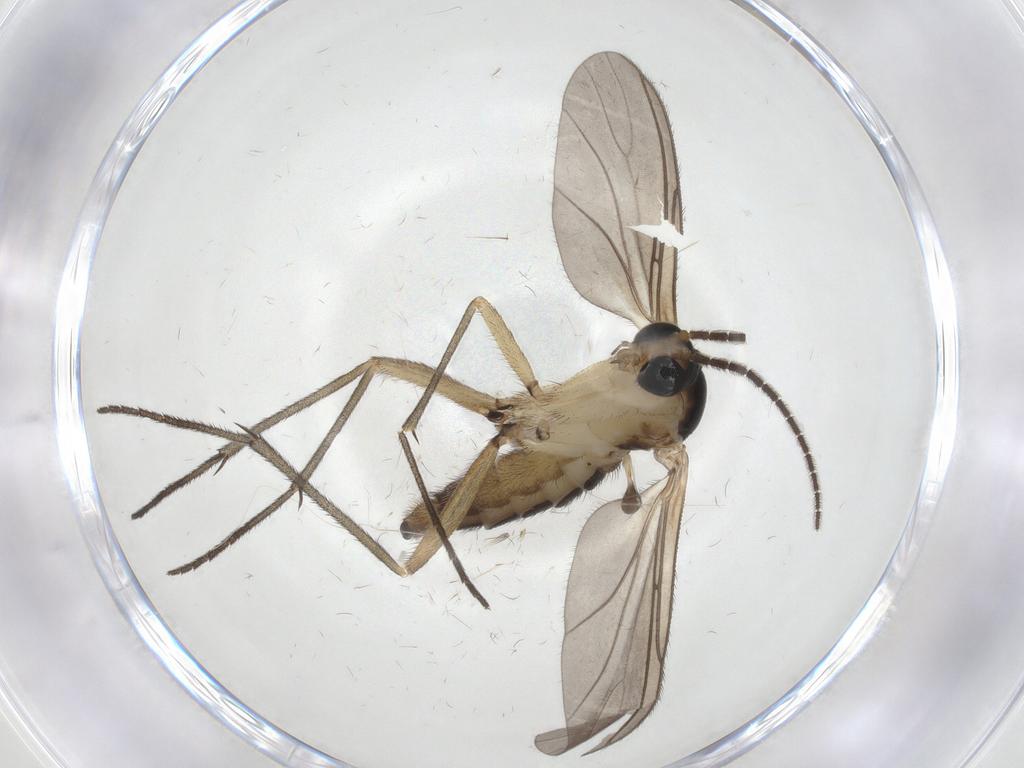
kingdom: Animalia
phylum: Arthropoda
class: Insecta
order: Diptera
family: Sciaridae
